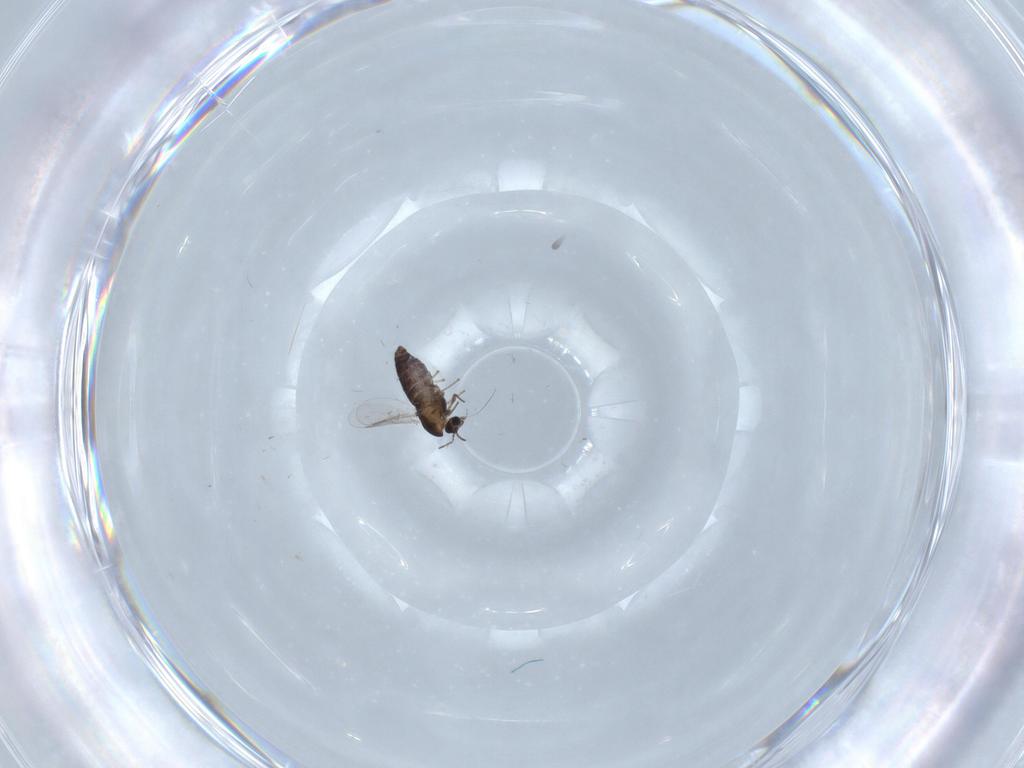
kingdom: Animalia
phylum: Arthropoda
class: Insecta
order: Diptera
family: Chironomidae
